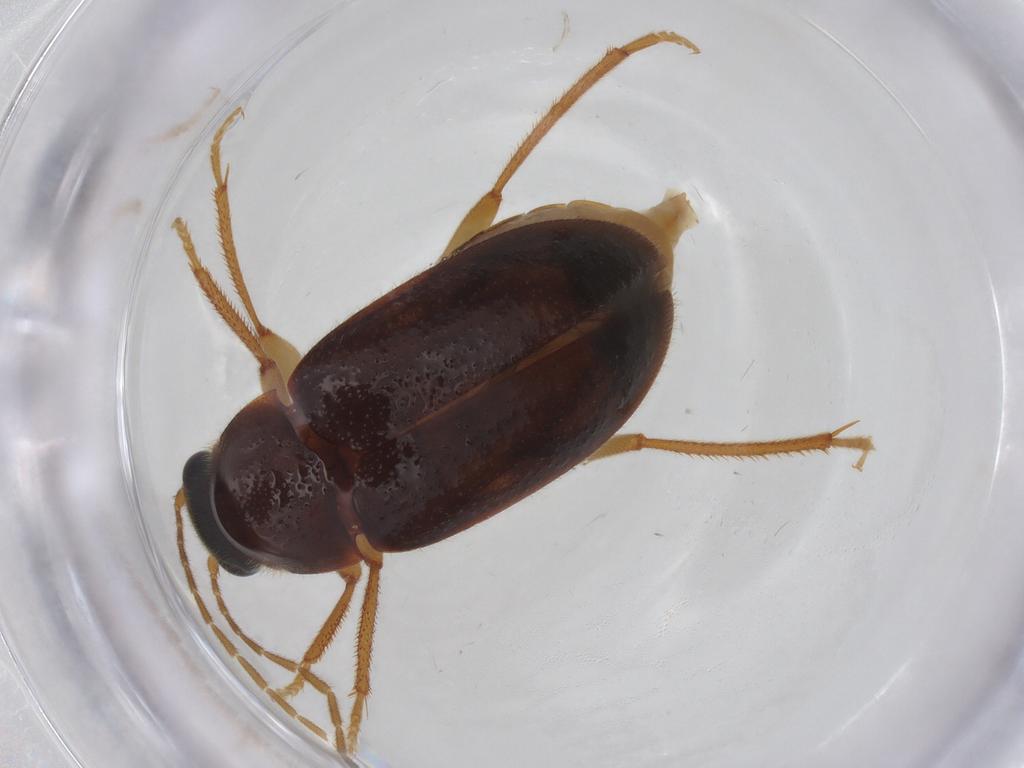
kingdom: Animalia
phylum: Arthropoda
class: Insecta
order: Coleoptera
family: Ptilodactylidae
